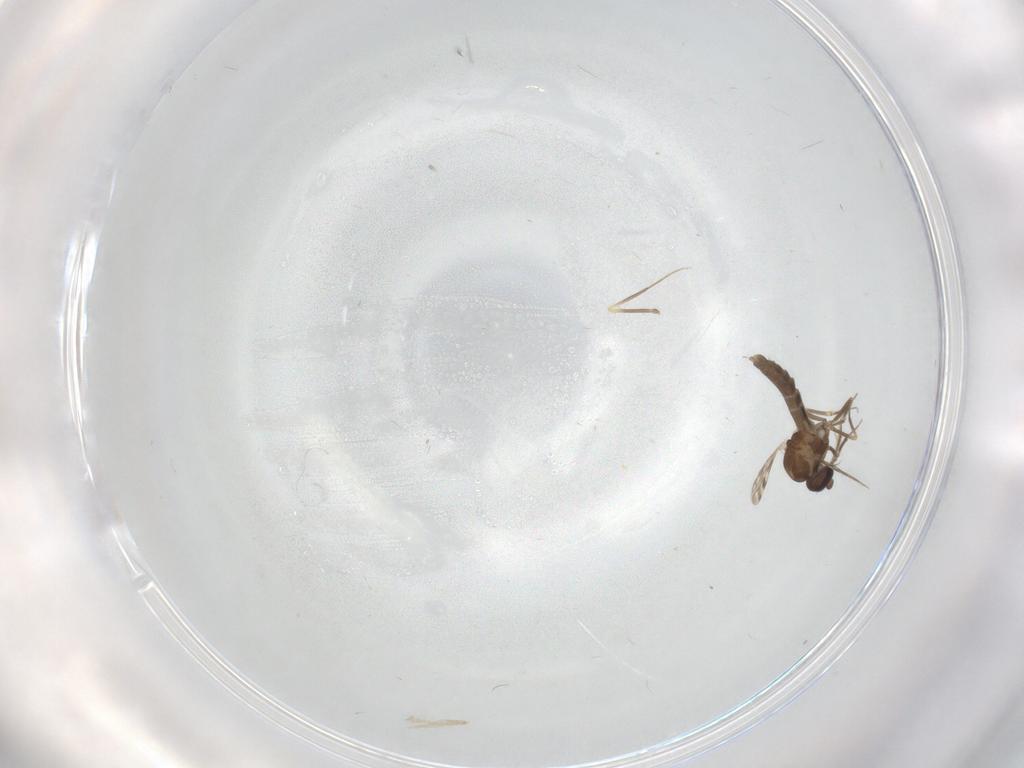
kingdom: Animalia
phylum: Arthropoda
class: Insecta
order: Diptera
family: Ceratopogonidae
